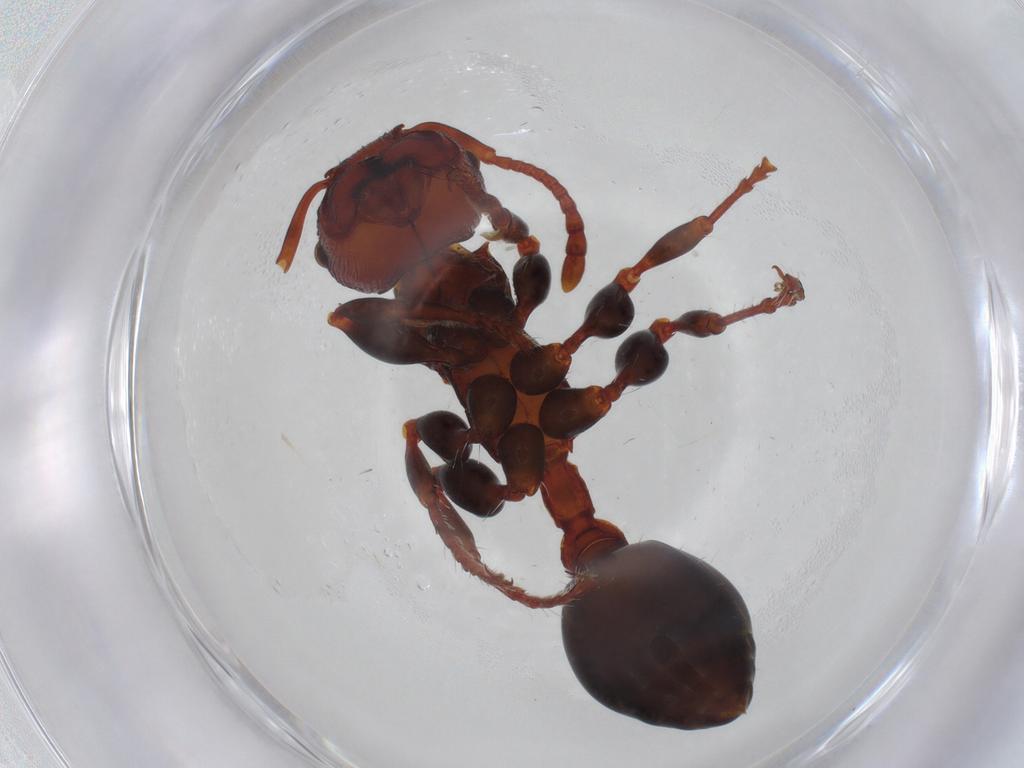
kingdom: Animalia
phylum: Arthropoda
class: Insecta
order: Hymenoptera
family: Formicidae
